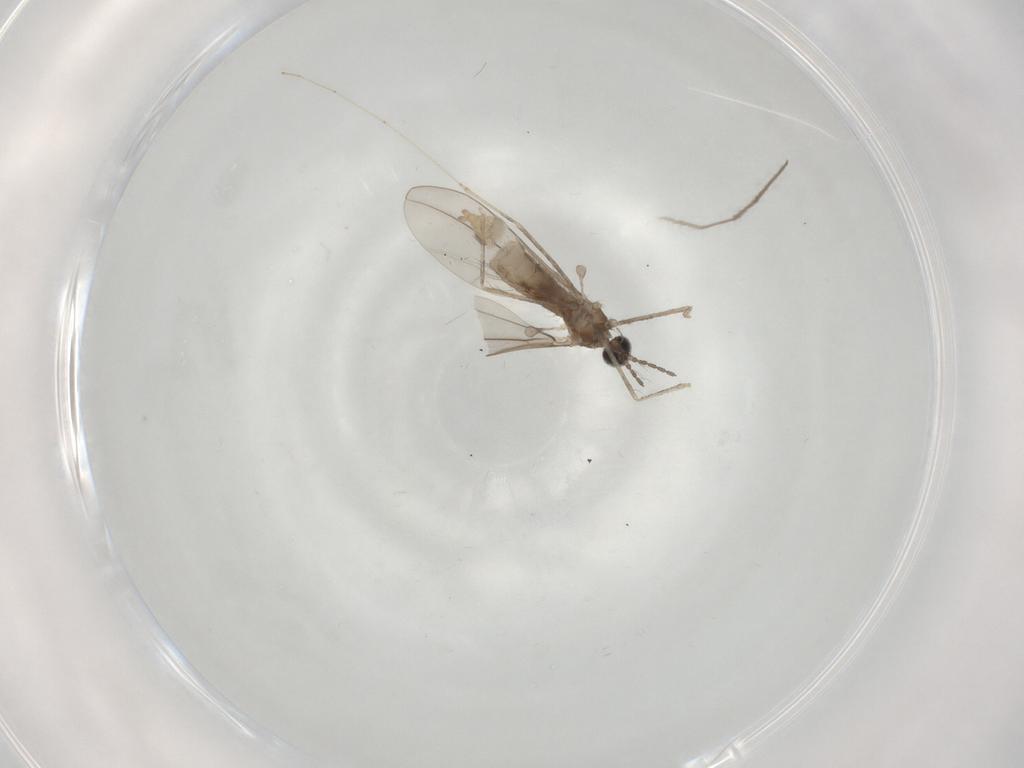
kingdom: Animalia
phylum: Arthropoda
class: Insecta
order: Diptera
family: Cecidomyiidae
